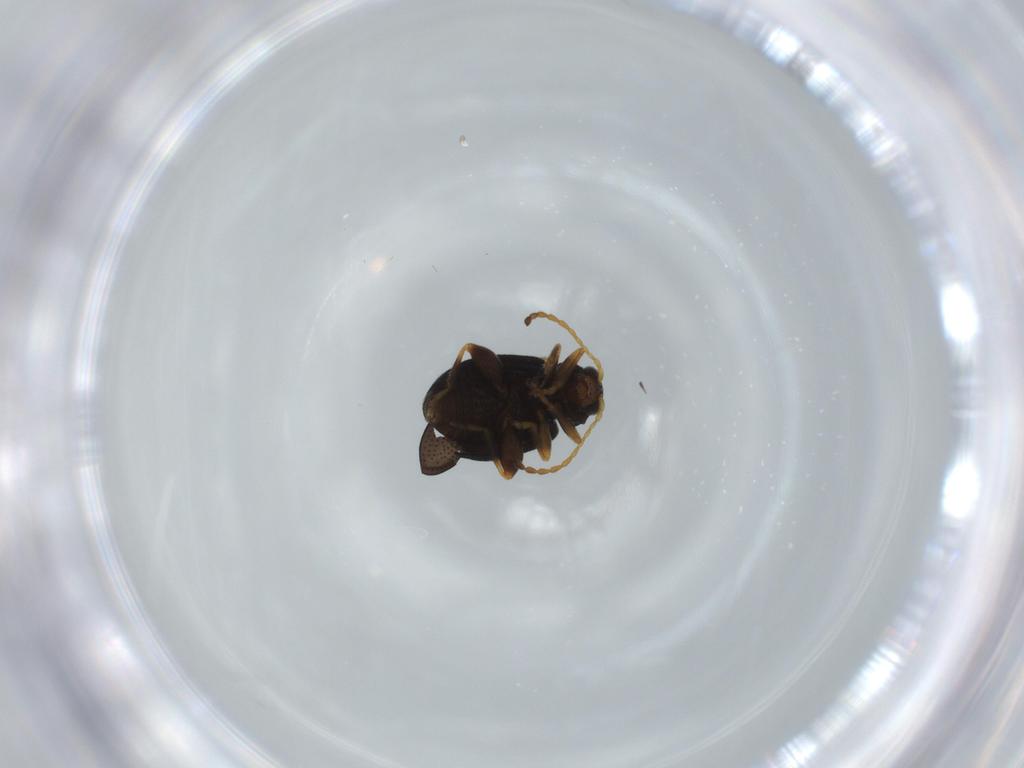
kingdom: Animalia
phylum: Arthropoda
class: Insecta
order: Coleoptera
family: Chrysomelidae
